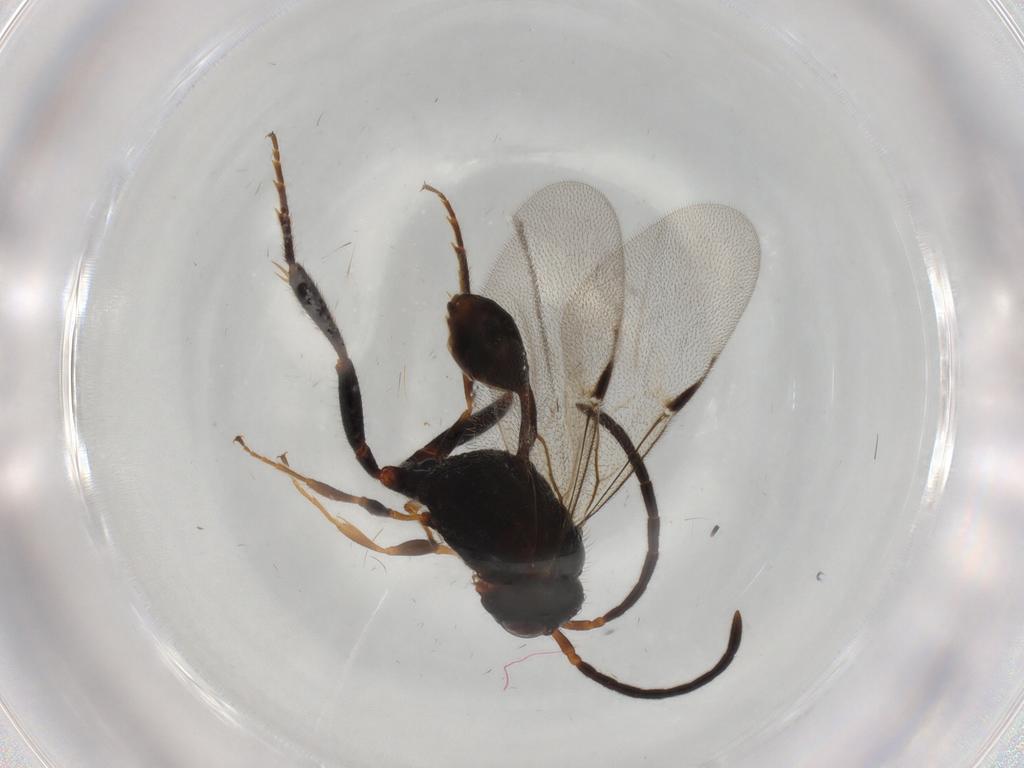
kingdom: Animalia
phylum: Arthropoda
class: Insecta
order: Hymenoptera
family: Evaniidae
